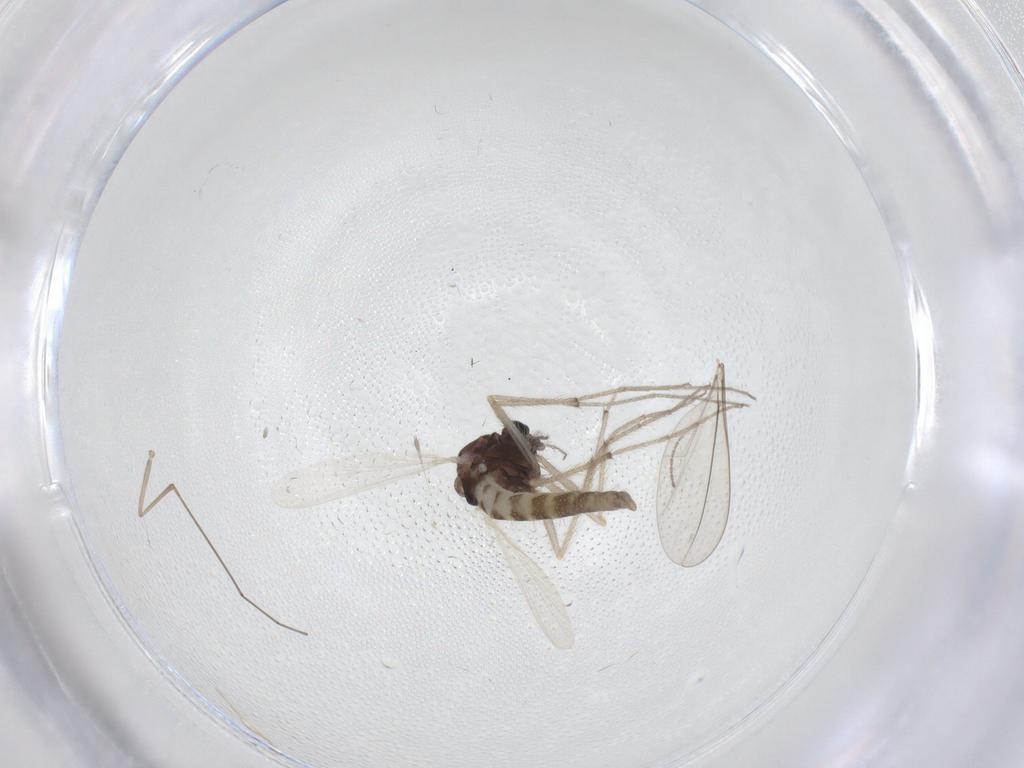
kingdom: Animalia
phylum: Arthropoda
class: Insecta
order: Diptera
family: Chironomidae
